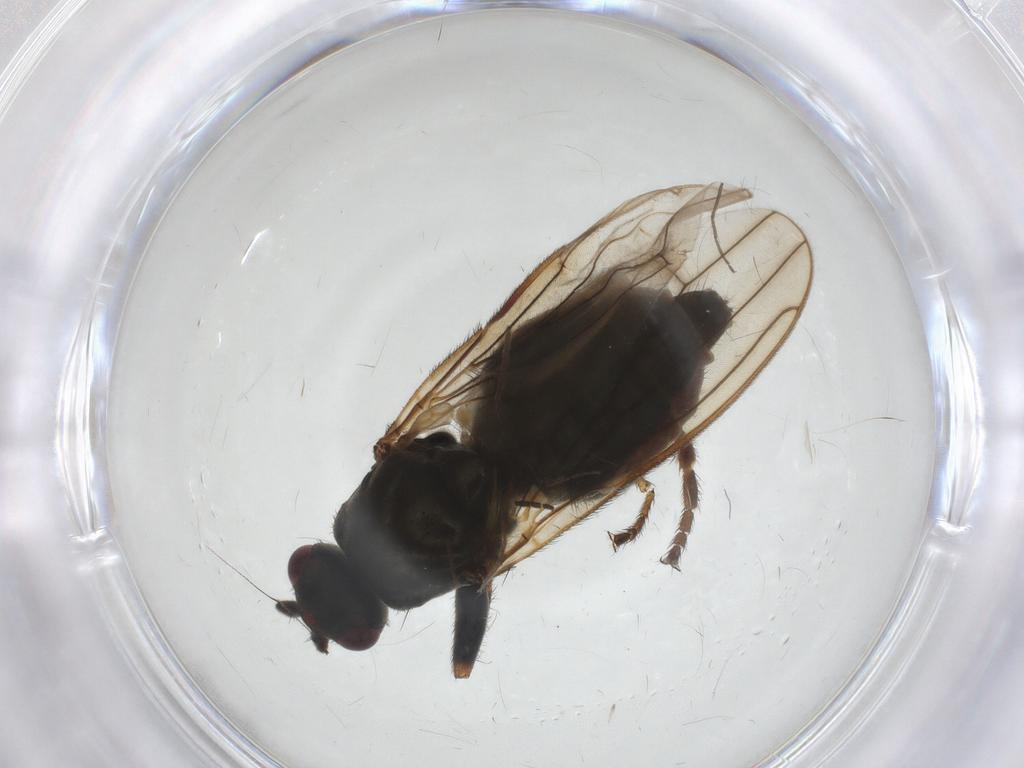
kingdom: Animalia
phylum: Arthropoda
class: Insecta
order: Diptera
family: Sphaeroceridae
